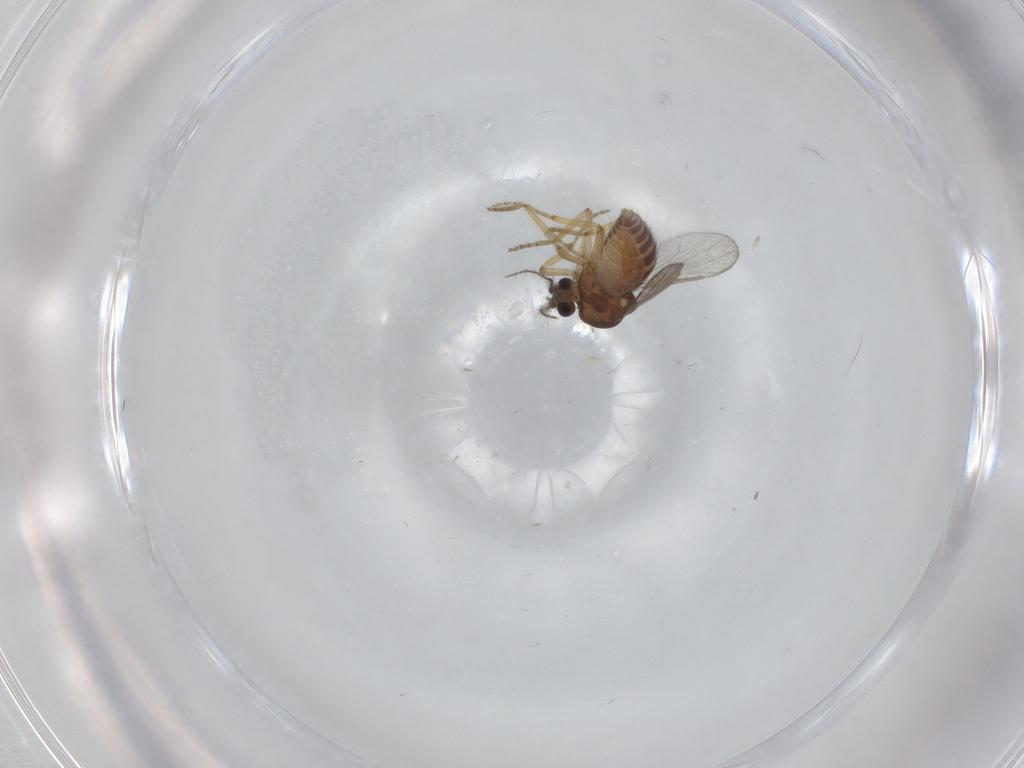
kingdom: Animalia
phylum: Arthropoda
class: Insecta
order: Diptera
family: Ceratopogonidae
